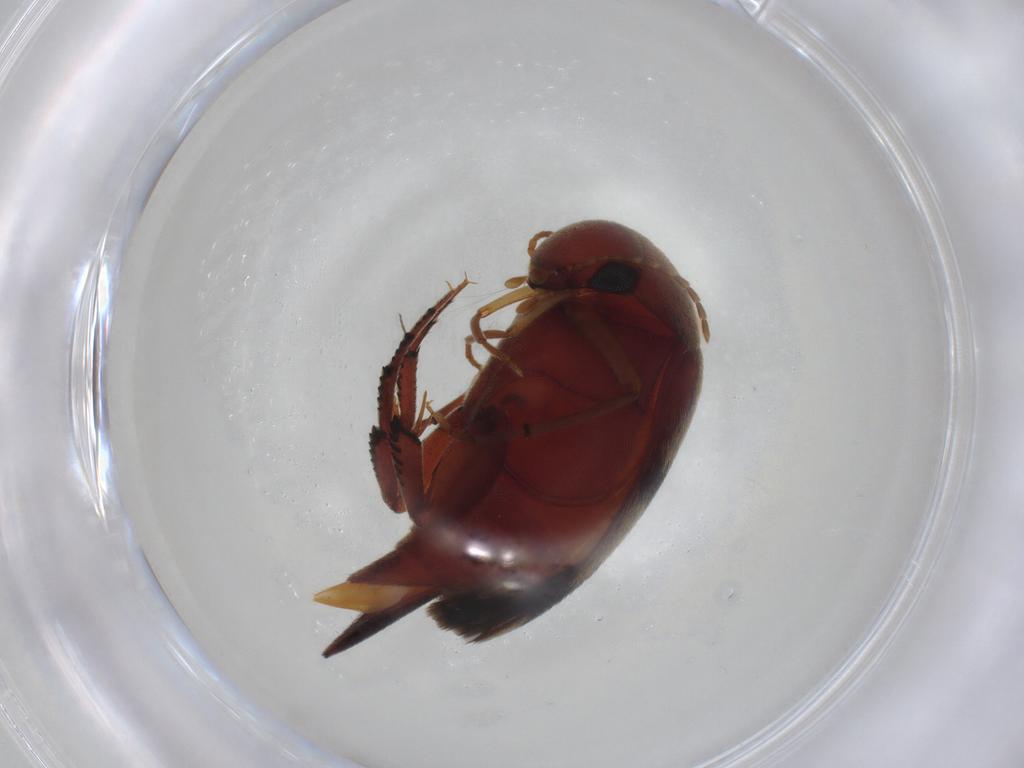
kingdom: Animalia
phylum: Arthropoda
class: Insecta
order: Diptera
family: Chironomidae
